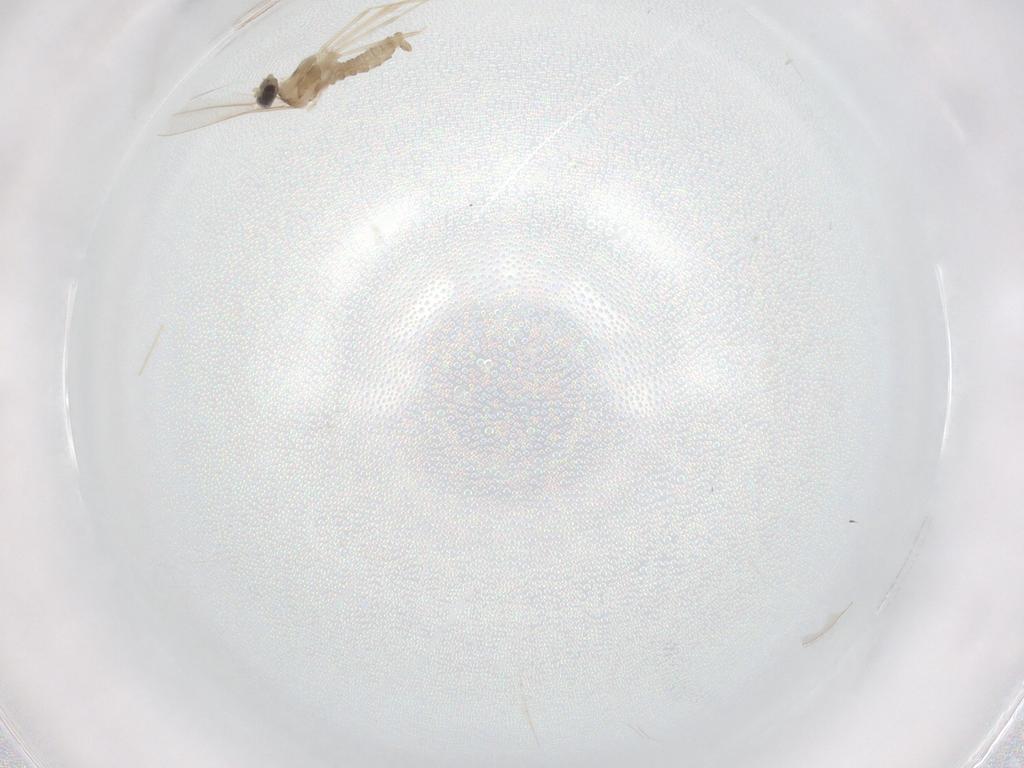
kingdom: Animalia
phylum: Arthropoda
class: Insecta
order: Diptera
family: Cecidomyiidae
